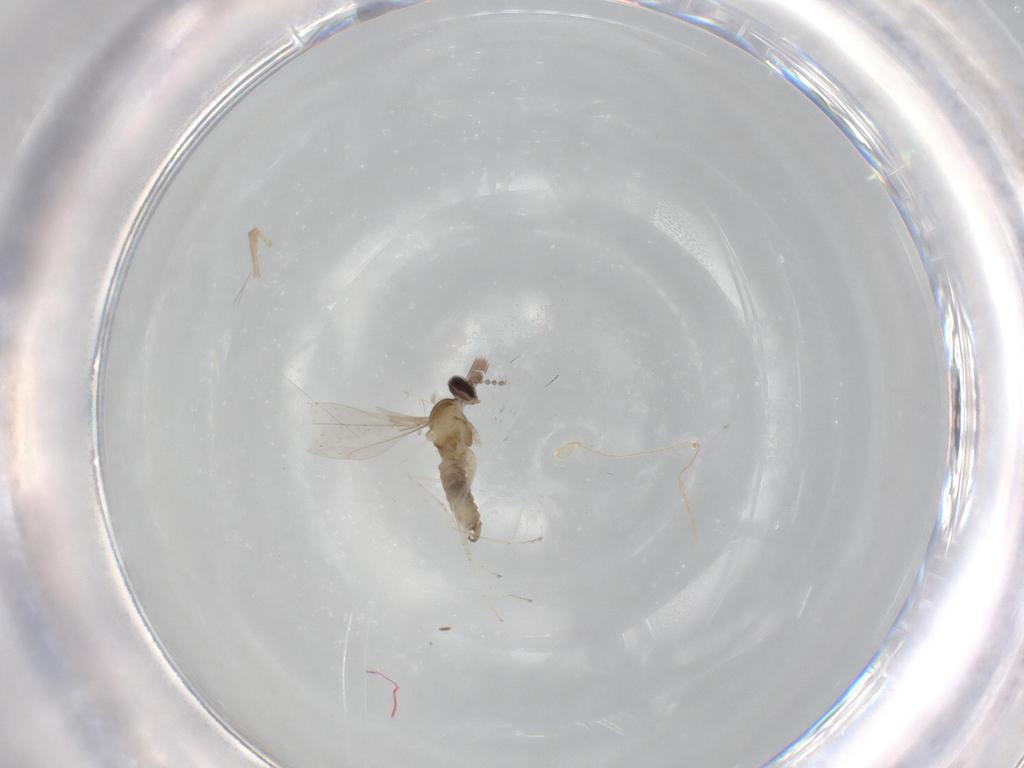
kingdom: Animalia
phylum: Arthropoda
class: Insecta
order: Diptera
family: Cecidomyiidae
